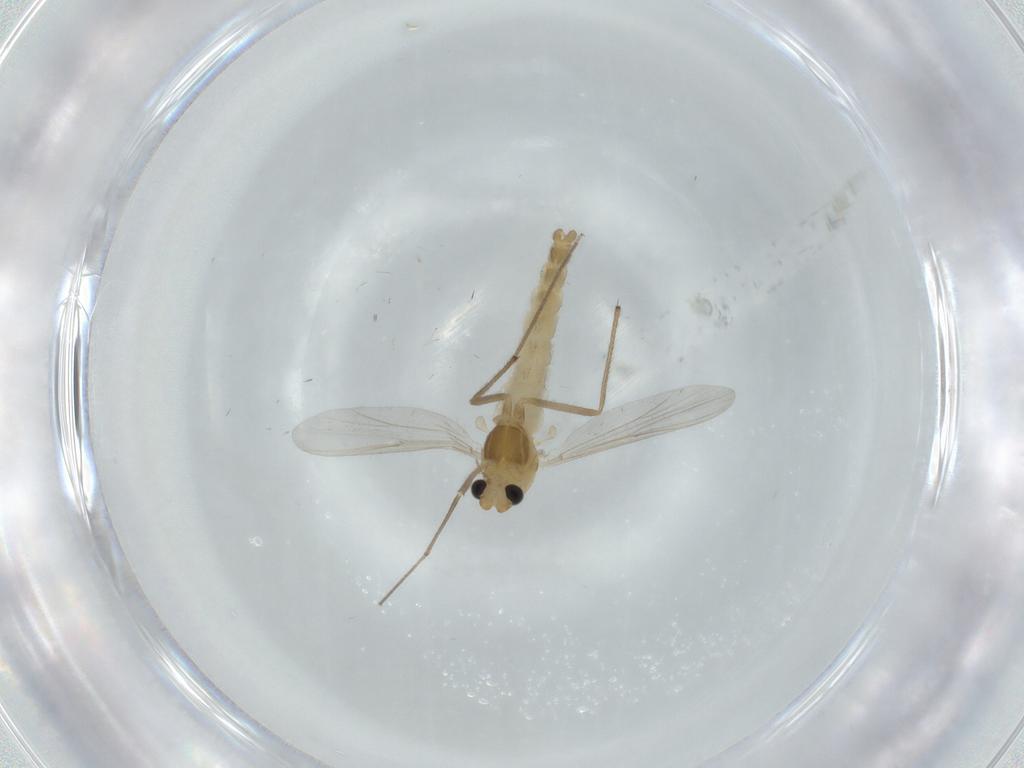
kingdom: Animalia
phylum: Arthropoda
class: Insecta
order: Diptera
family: Chironomidae
